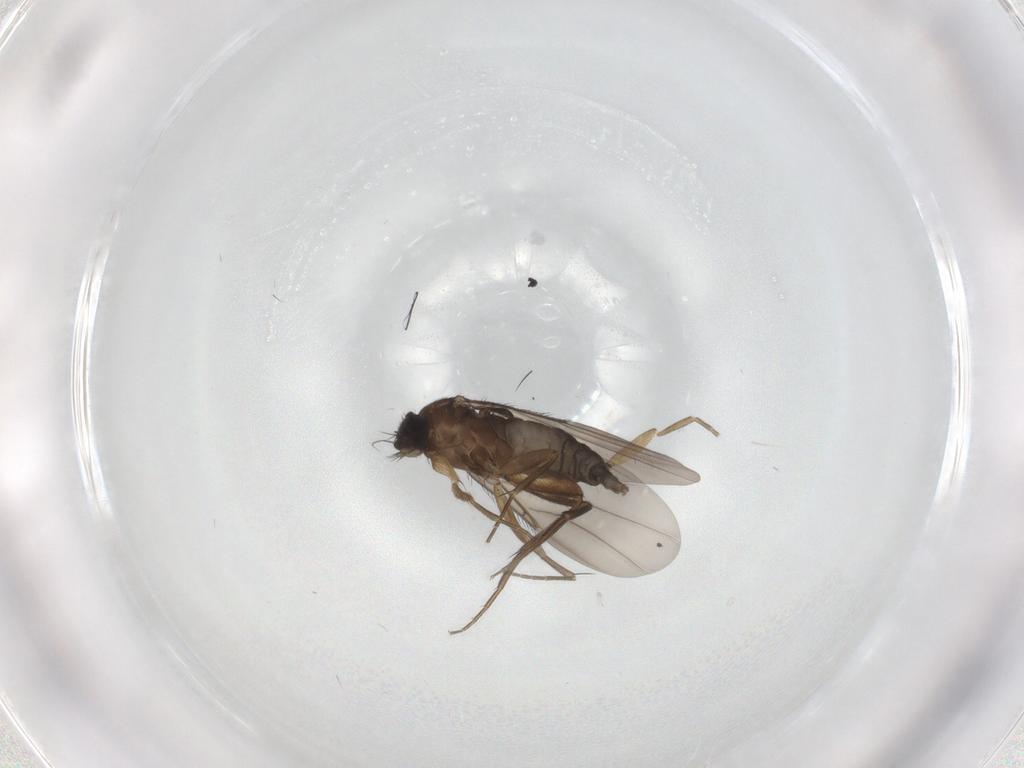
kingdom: Animalia
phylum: Arthropoda
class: Insecta
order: Diptera
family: Phoridae
